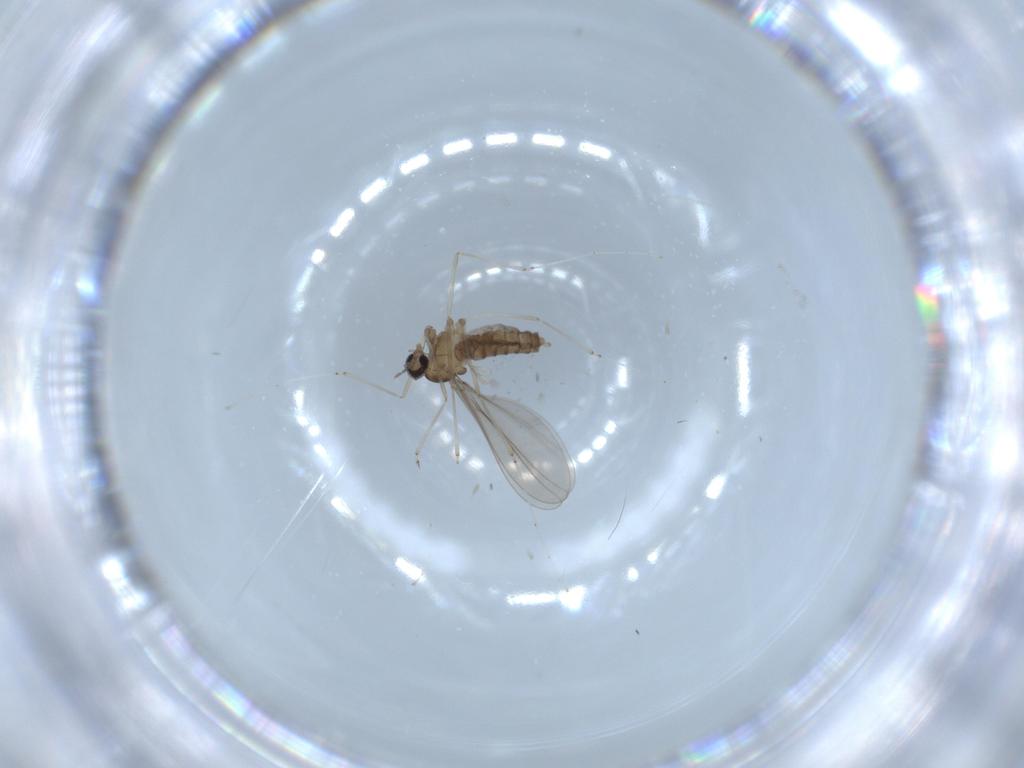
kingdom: Animalia
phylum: Arthropoda
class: Insecta
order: Diptera
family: Cecidomyiidae
